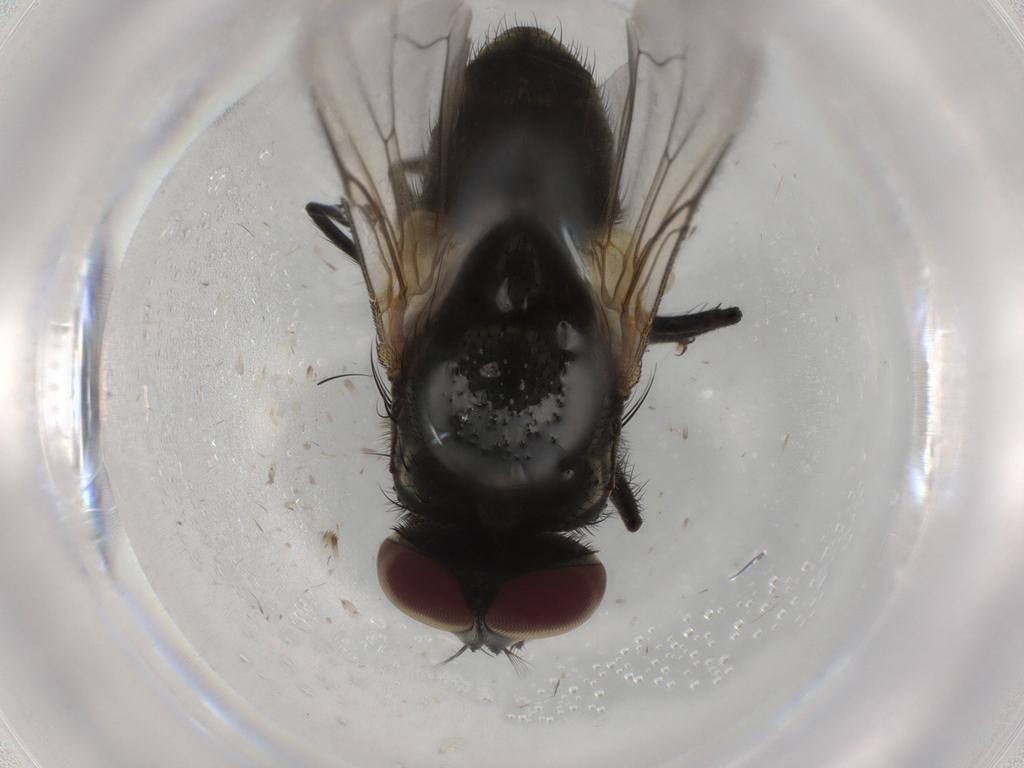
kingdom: Animalia
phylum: Arthropoda
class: Insecta
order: Diptera
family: Muscidae
